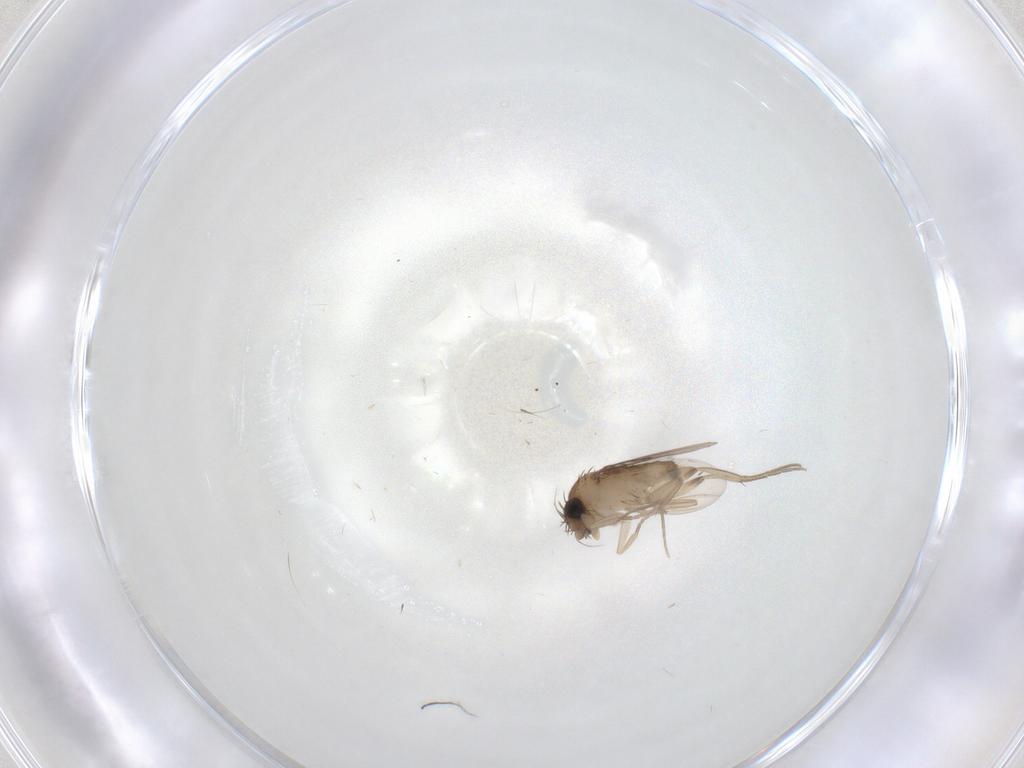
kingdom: Animalia
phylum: Arthropoda
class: Insecta
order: Diptera
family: Phoridae
